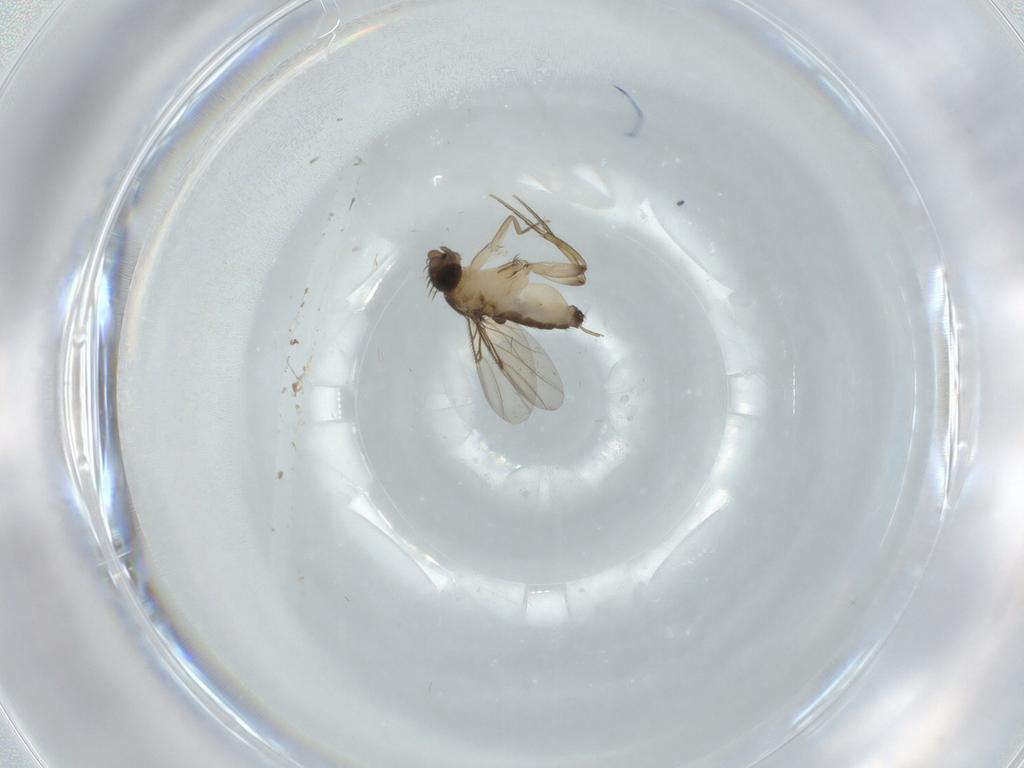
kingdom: Animalia
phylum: Arthropoda
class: Insecta
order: Diptera
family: Phoridae
